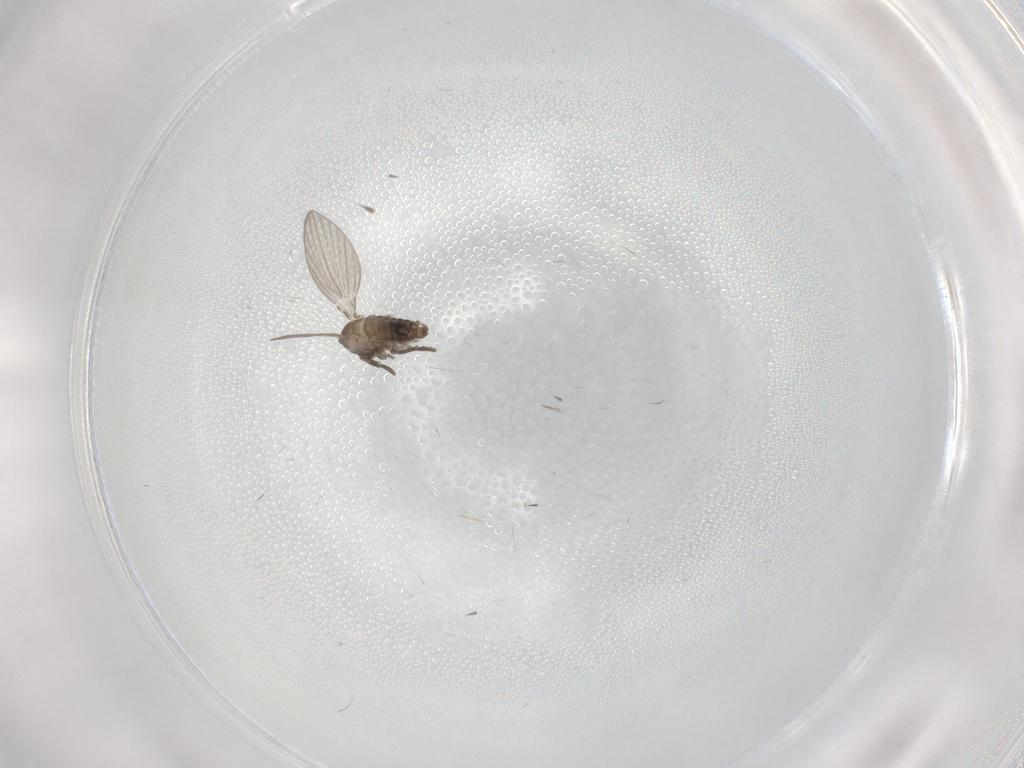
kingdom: Animalia
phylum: Arthropoda
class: Insecta
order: Diptera
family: Psychodidae
